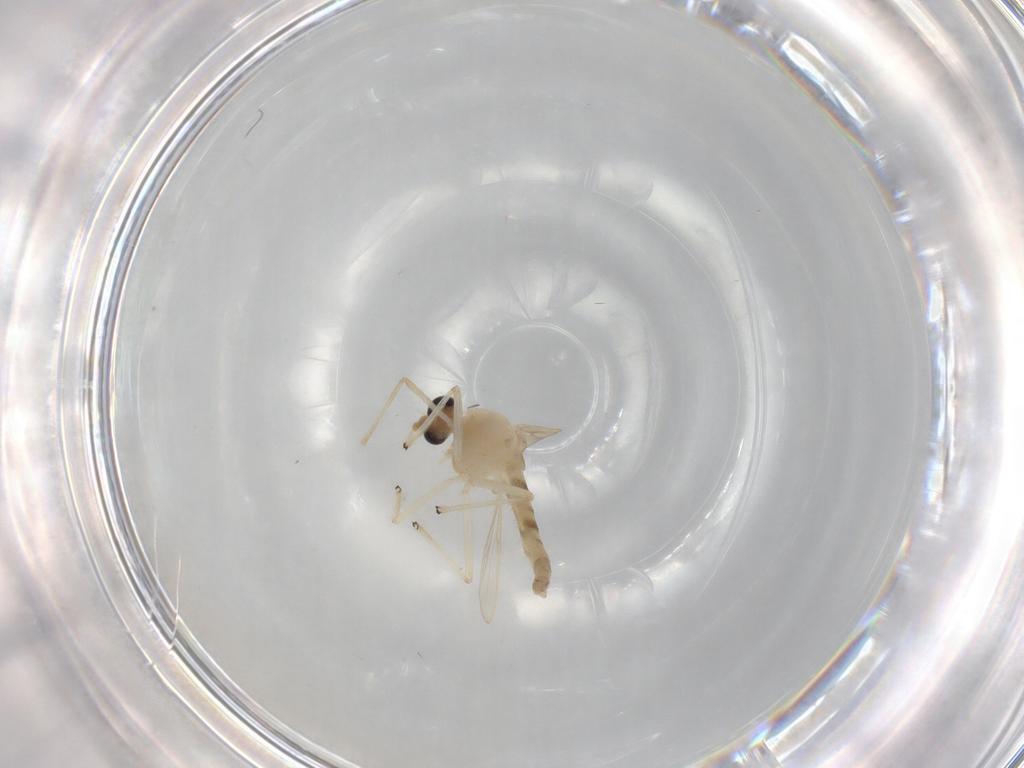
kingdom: Animalia
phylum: Arthropoda
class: Insecta
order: Diptera
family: Chironomidae
